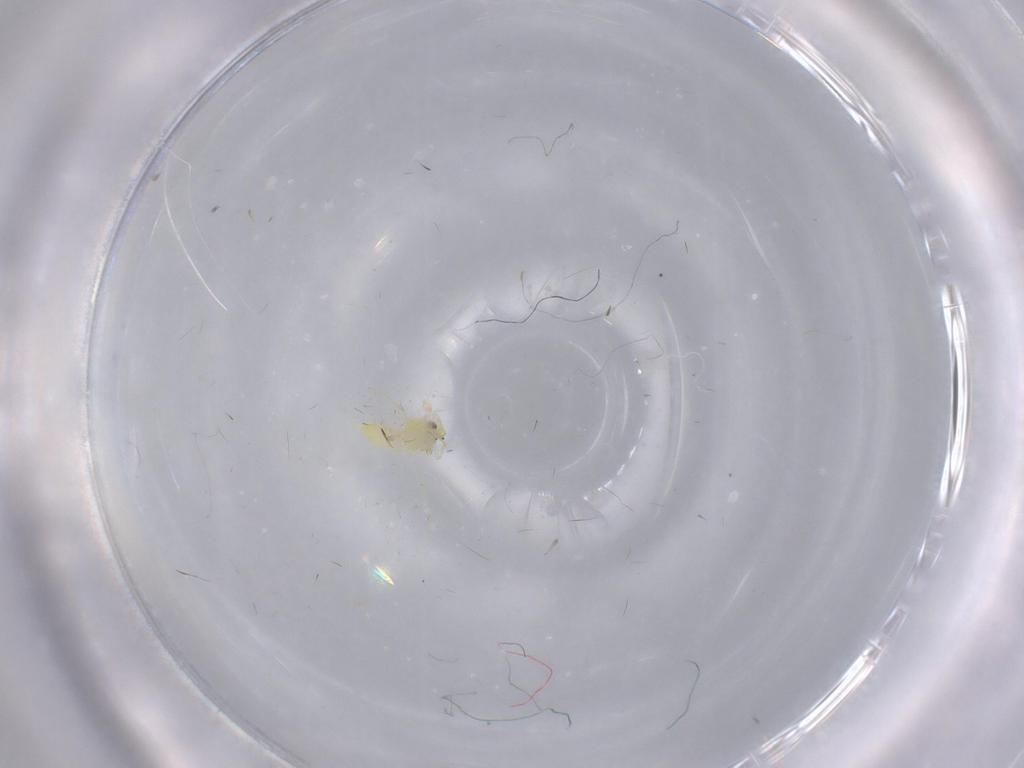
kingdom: Animalia
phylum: Arthropoda
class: Insecta
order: Hemiptera
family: Aleyrodidae
